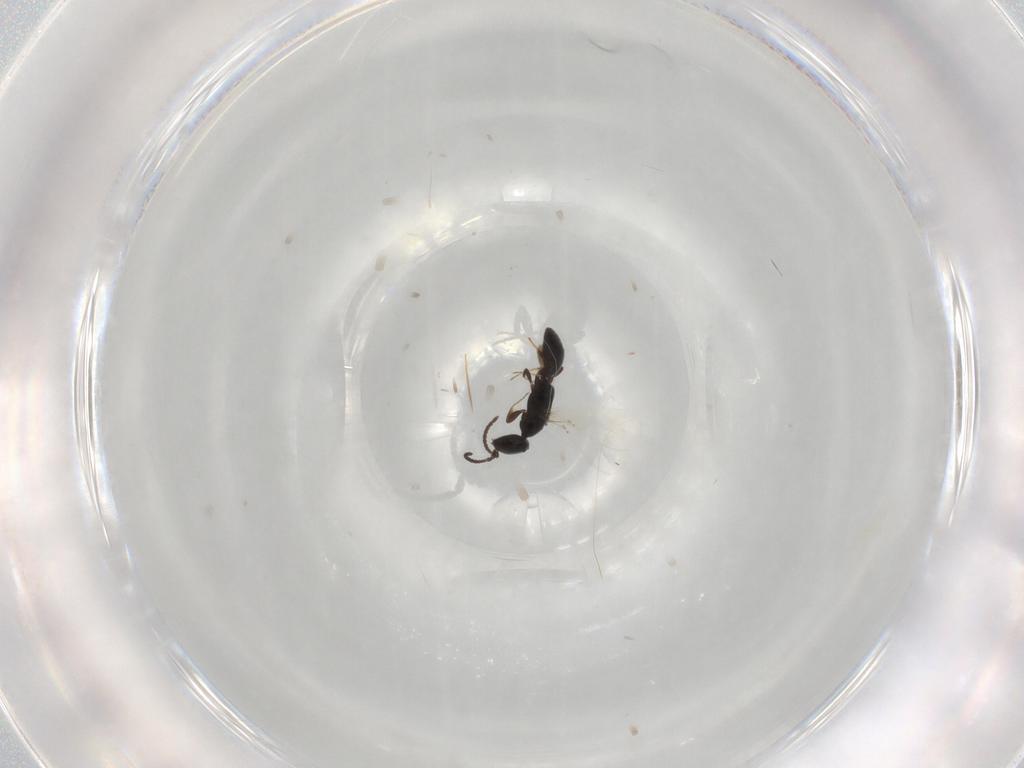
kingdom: Animalia
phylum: Arthropoda
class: Insecta
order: Hymenoptera
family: Bethylidae
